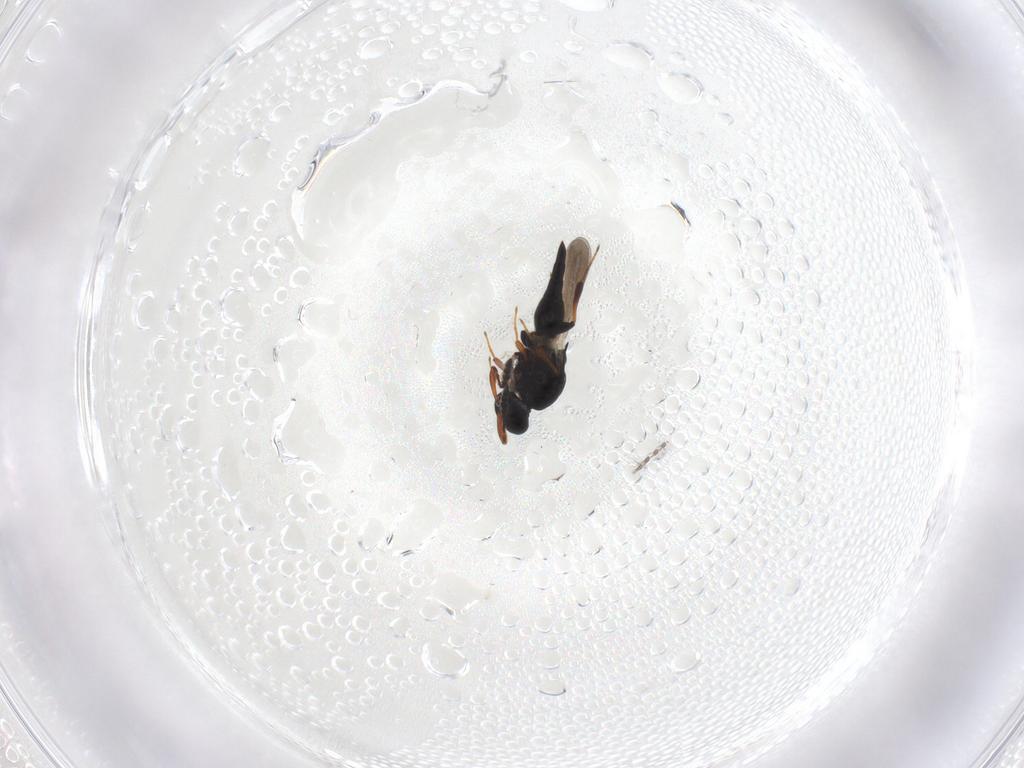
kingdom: Animalia
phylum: Arthropoda
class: Insecta
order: Hymenoptera
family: Platygastridae
